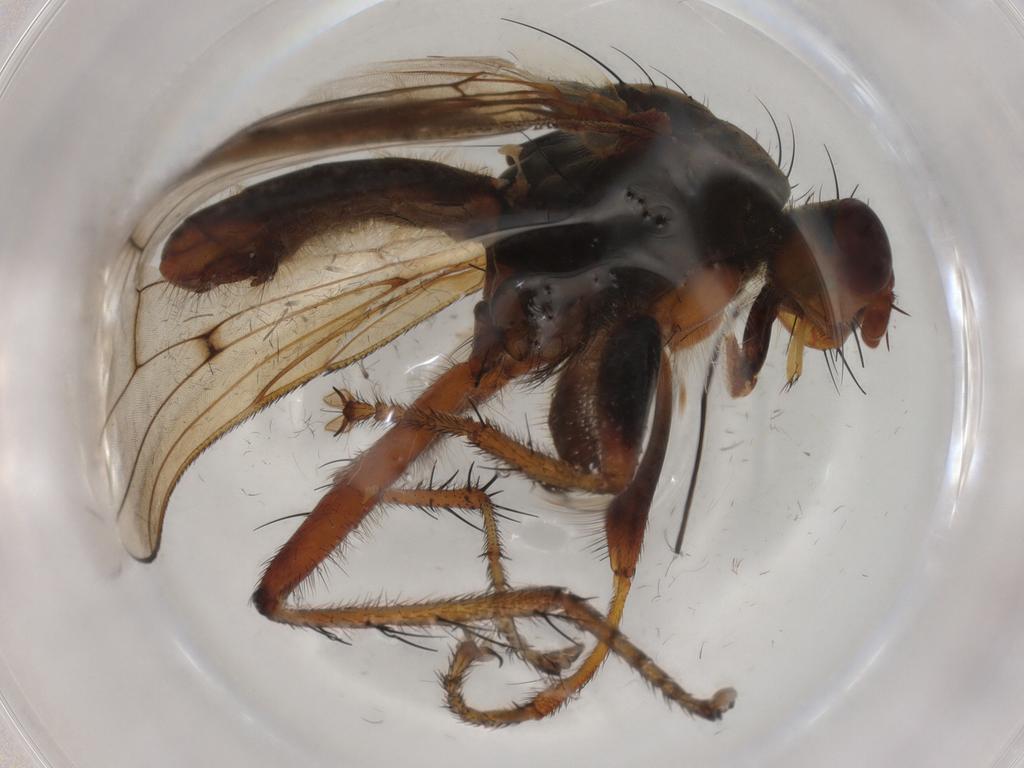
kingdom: Animalia
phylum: Arthropoda
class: Insecta
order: Diptera
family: Scathophagidae
